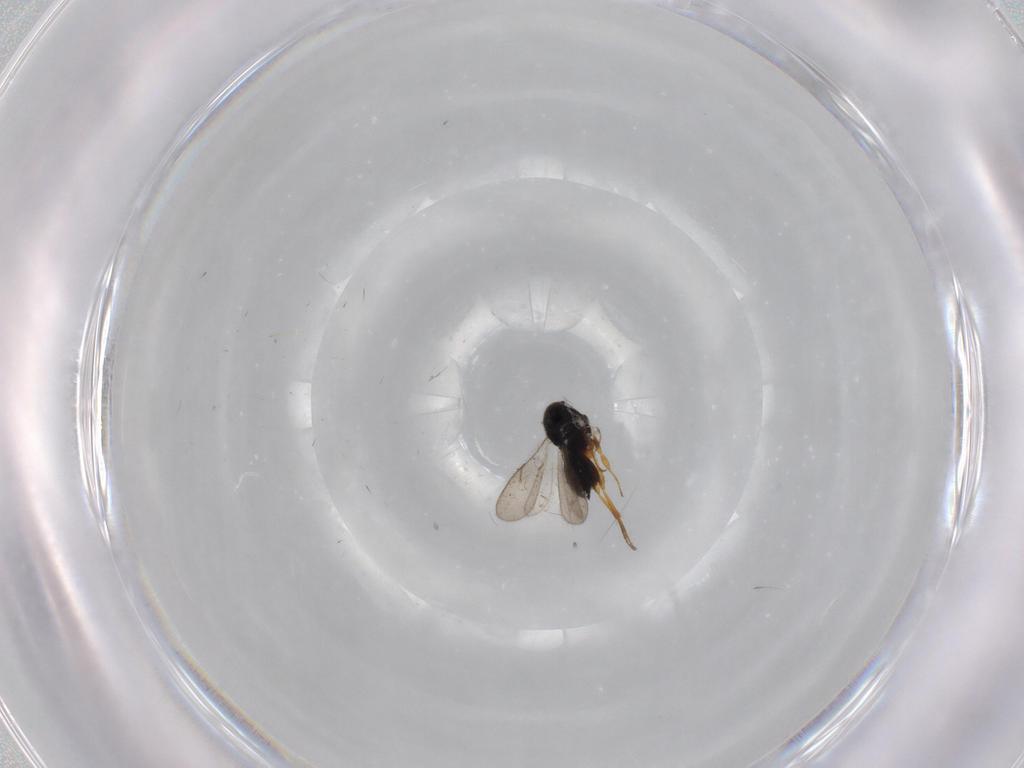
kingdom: Animalia
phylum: Arthropoda
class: Insecta
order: Hymenoptera
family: Scelionidae
